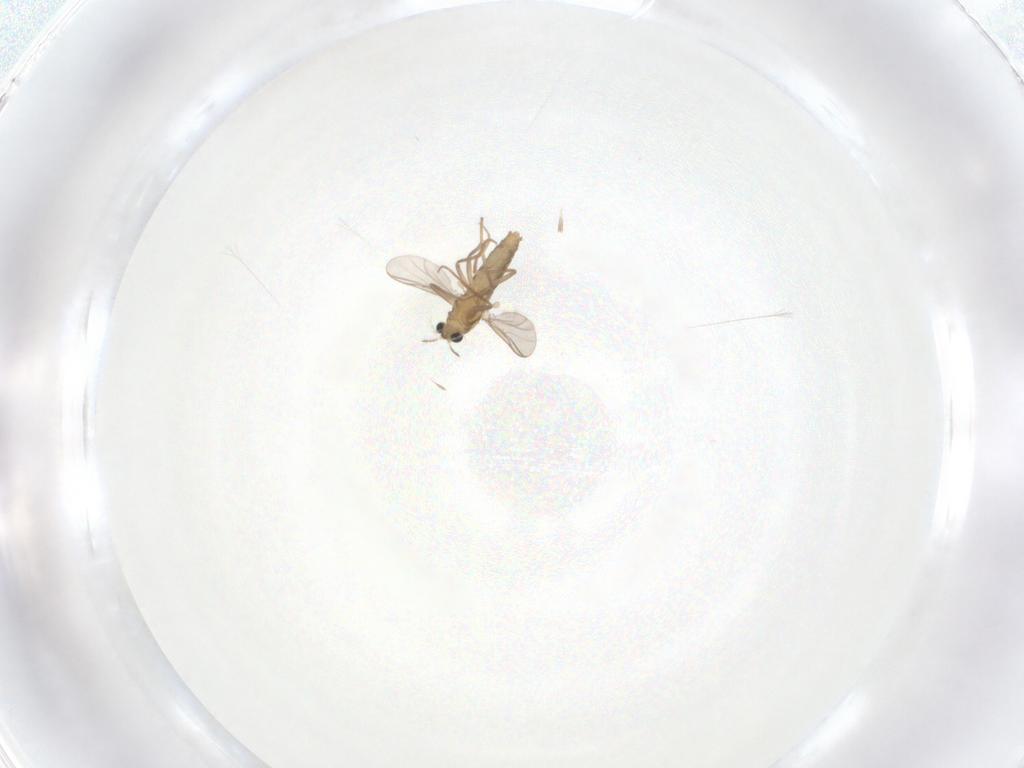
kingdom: Animalia
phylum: Arthropoda
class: Insecta
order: Diptera
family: Chironomidae
